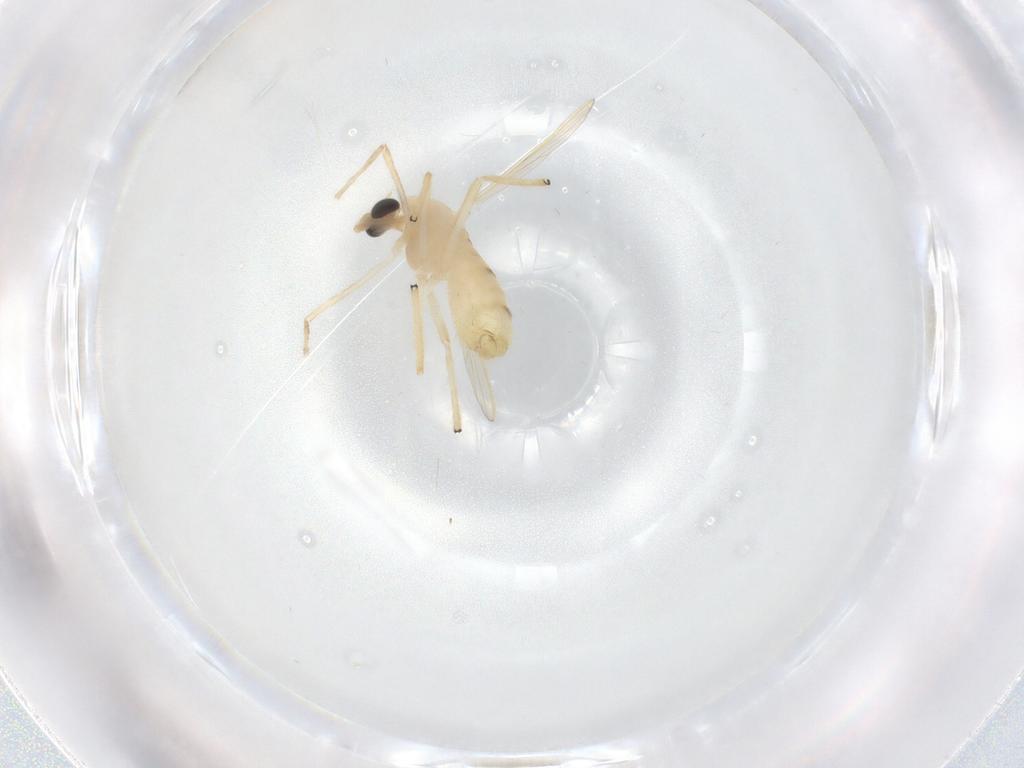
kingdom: Animalia
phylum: Arthropoda
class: Insecta
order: Diptera
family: Chironomidae
